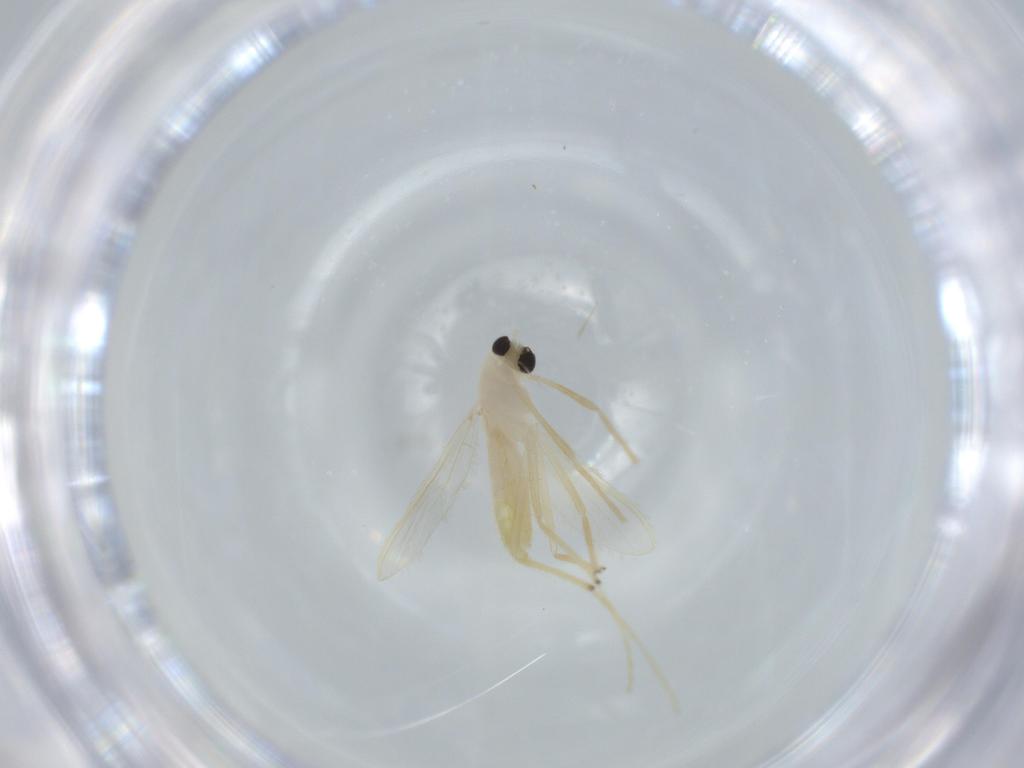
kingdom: Animalia
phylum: Arthropoda
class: Insecta
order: Diptera
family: Chironomidae
